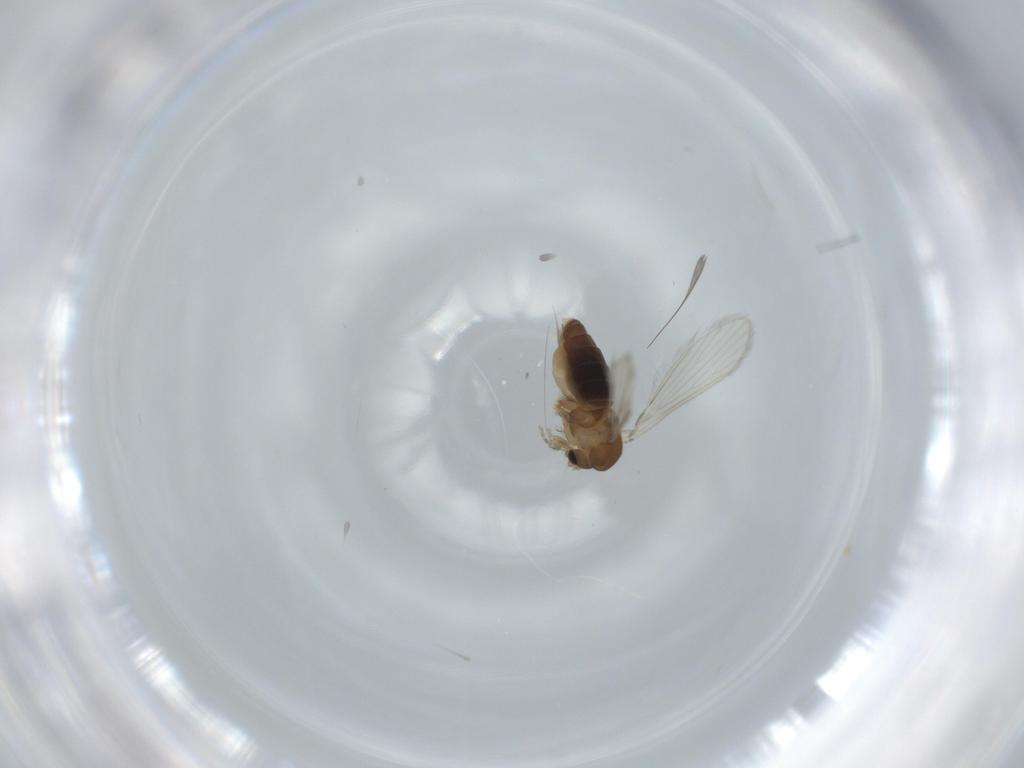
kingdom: Animalia
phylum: Arthropoda
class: Insecta
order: Diptera
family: Psychodidae
